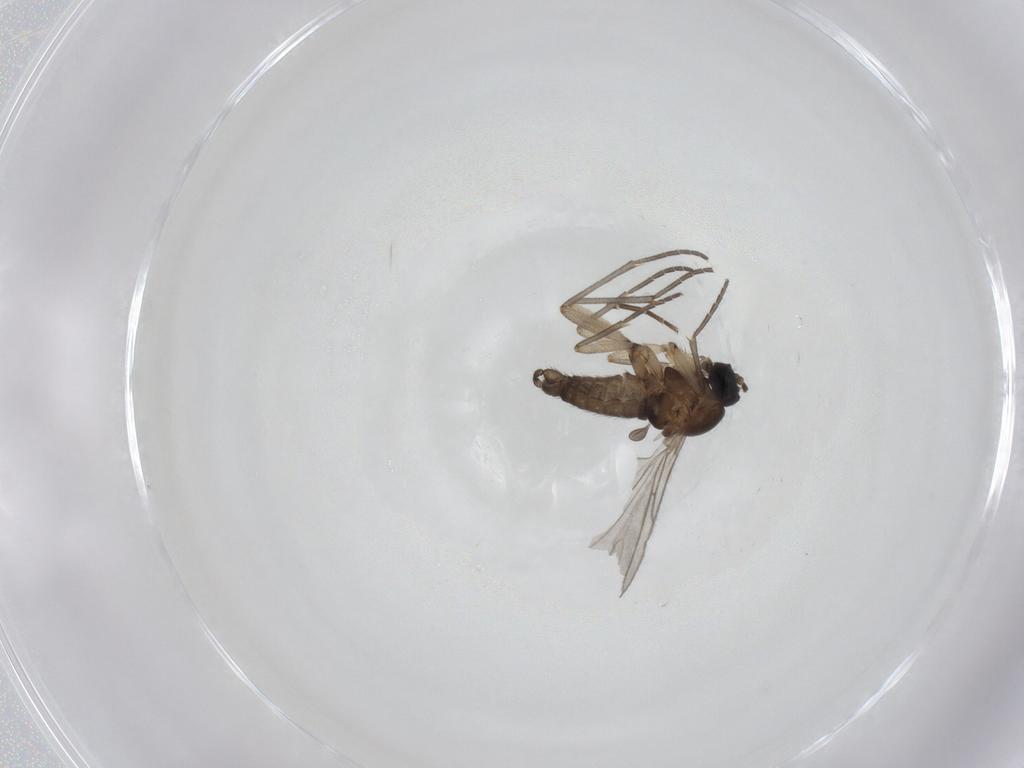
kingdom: Animalia
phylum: Arthropoda
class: Insecta
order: Diptera
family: Sciaridae
